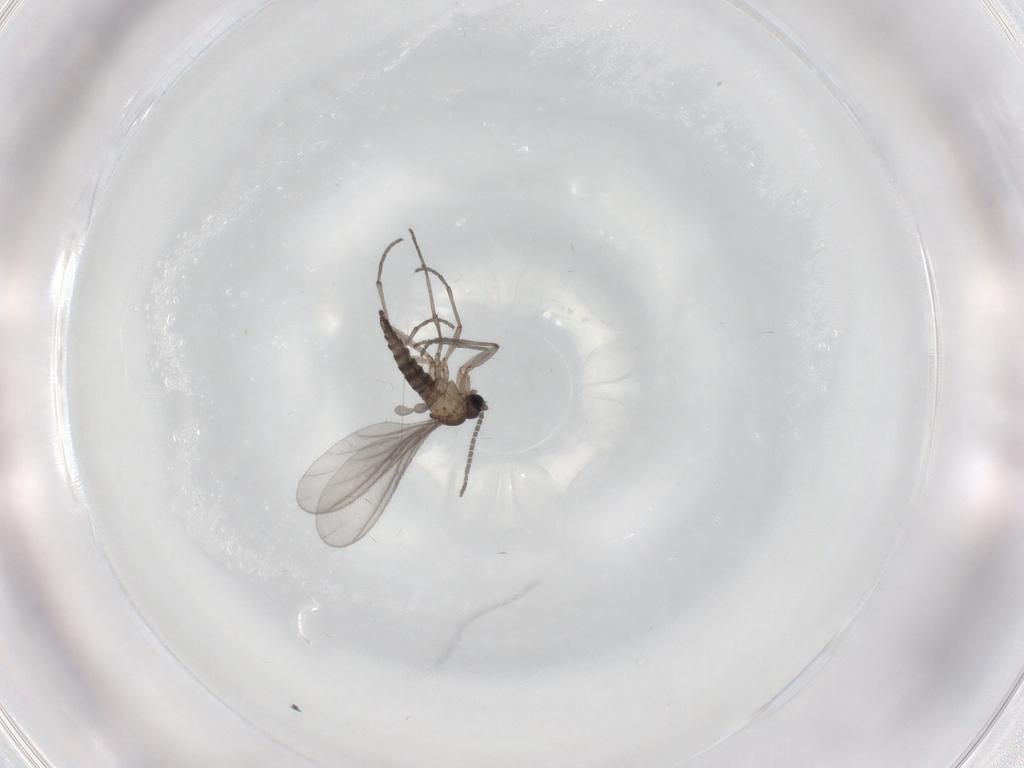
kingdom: Animalia
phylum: Arthropoda
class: Insecta
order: Diptera
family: Sciaridae
